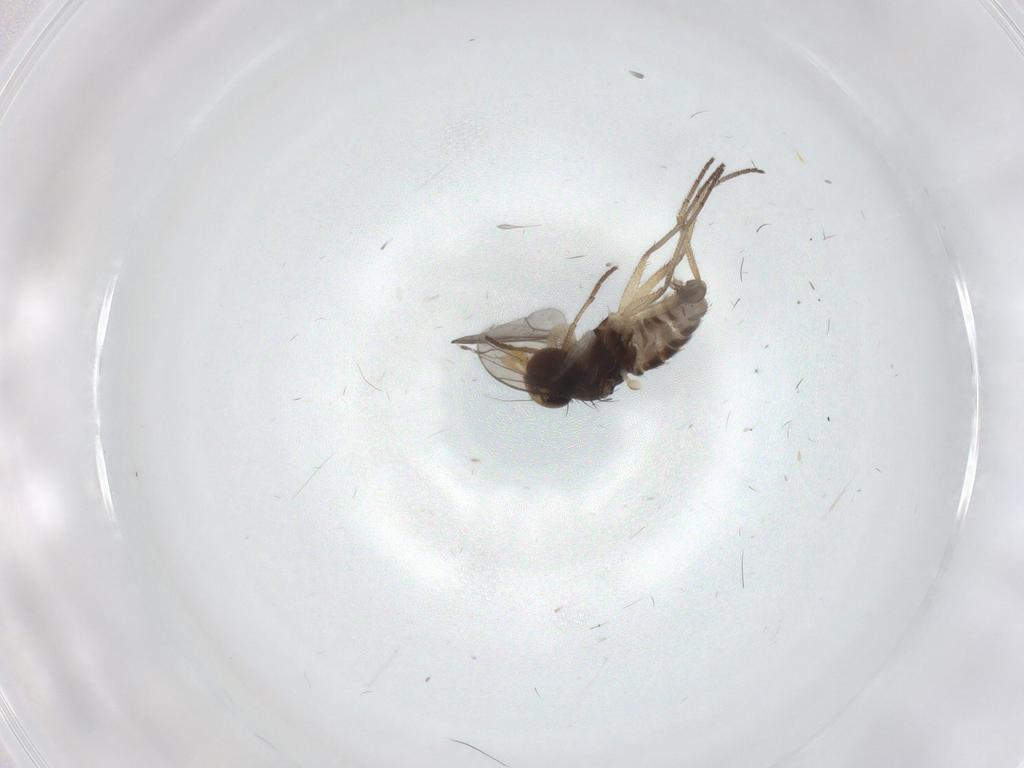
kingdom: Animalia
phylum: Arthropoda
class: Insecta
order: Diptera
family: Dolichopodidae
